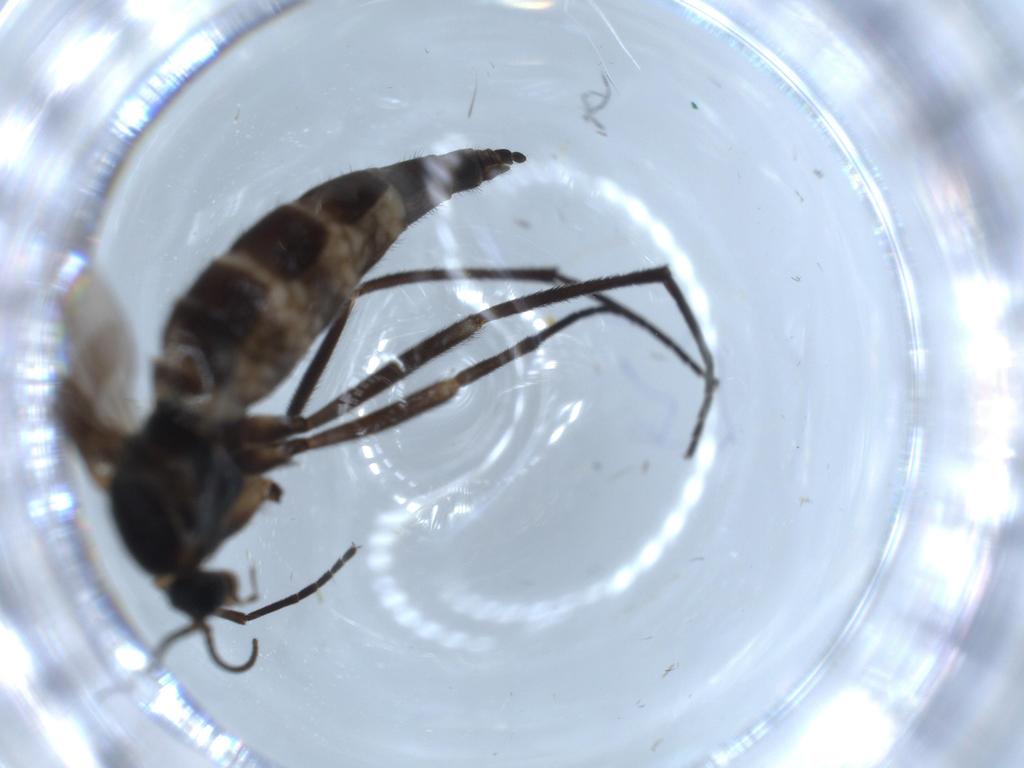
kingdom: Animalia
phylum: Arthropoda
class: Insecta
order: Diptera
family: Sciaridae
